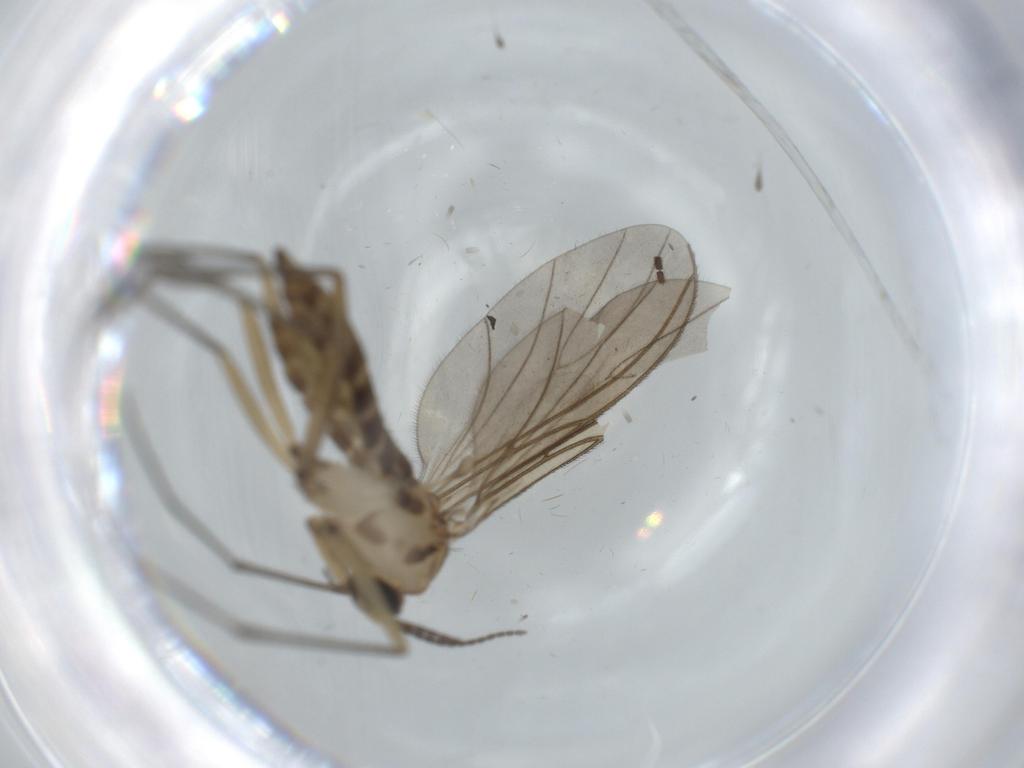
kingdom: Animalia
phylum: Arthropoda
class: Insecta
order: Diptera
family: Sciaridae
